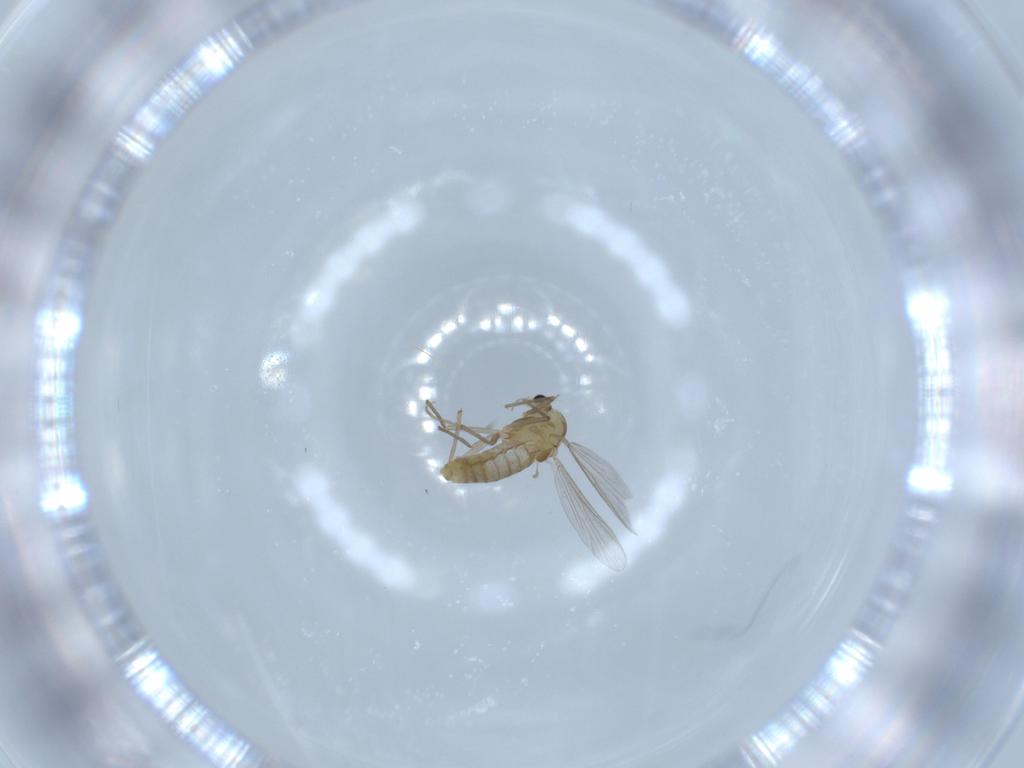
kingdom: Animalia
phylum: Arthropoda
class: Insecta
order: Diptera
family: Chironomidae
